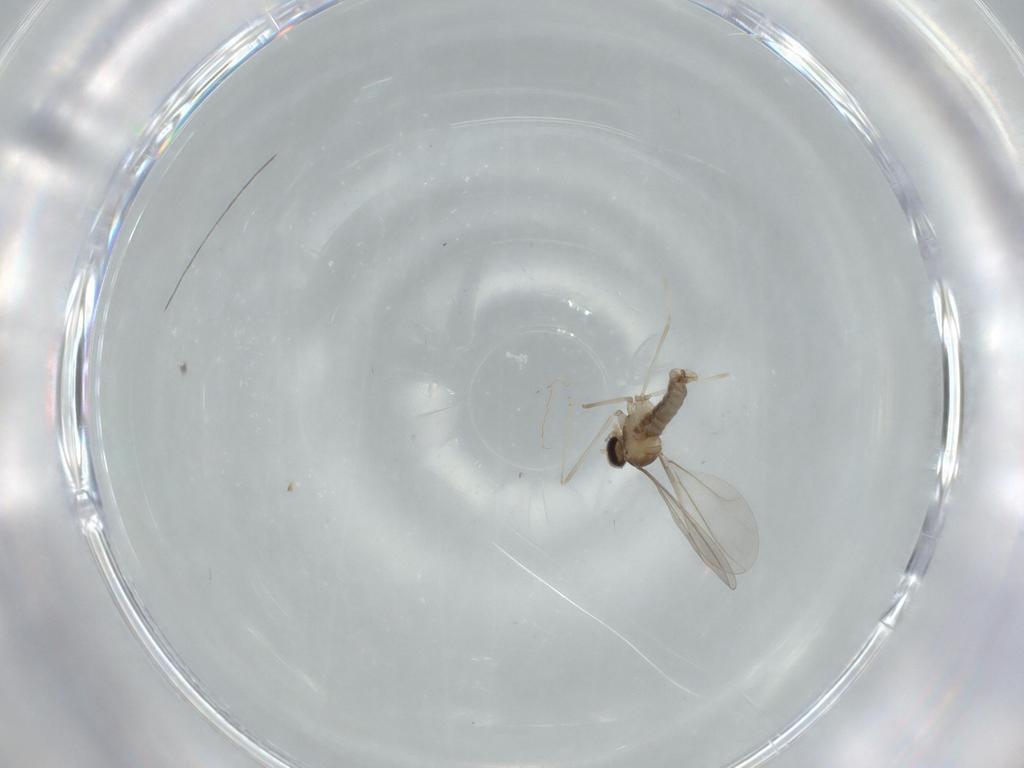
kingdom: Animalia
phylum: Arthropoda
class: Insecta
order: Diptera
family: Cecidomyiidae
